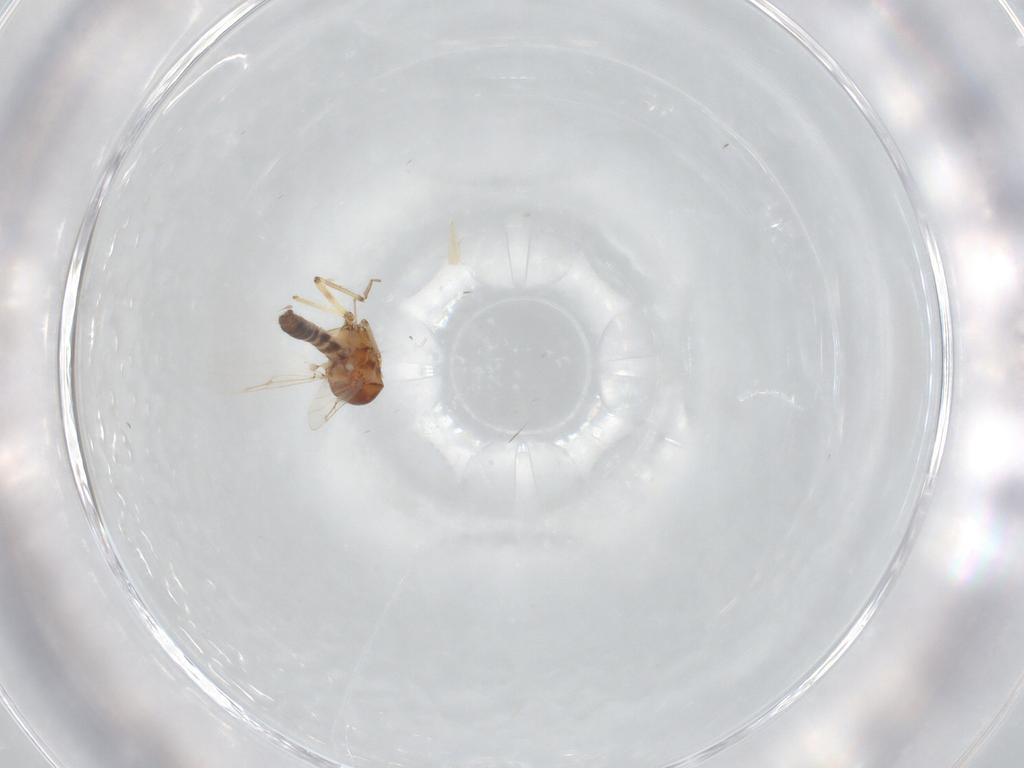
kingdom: Animalia
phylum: Arthropoda
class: Insecta
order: Diptera
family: Ceratopogonidae
